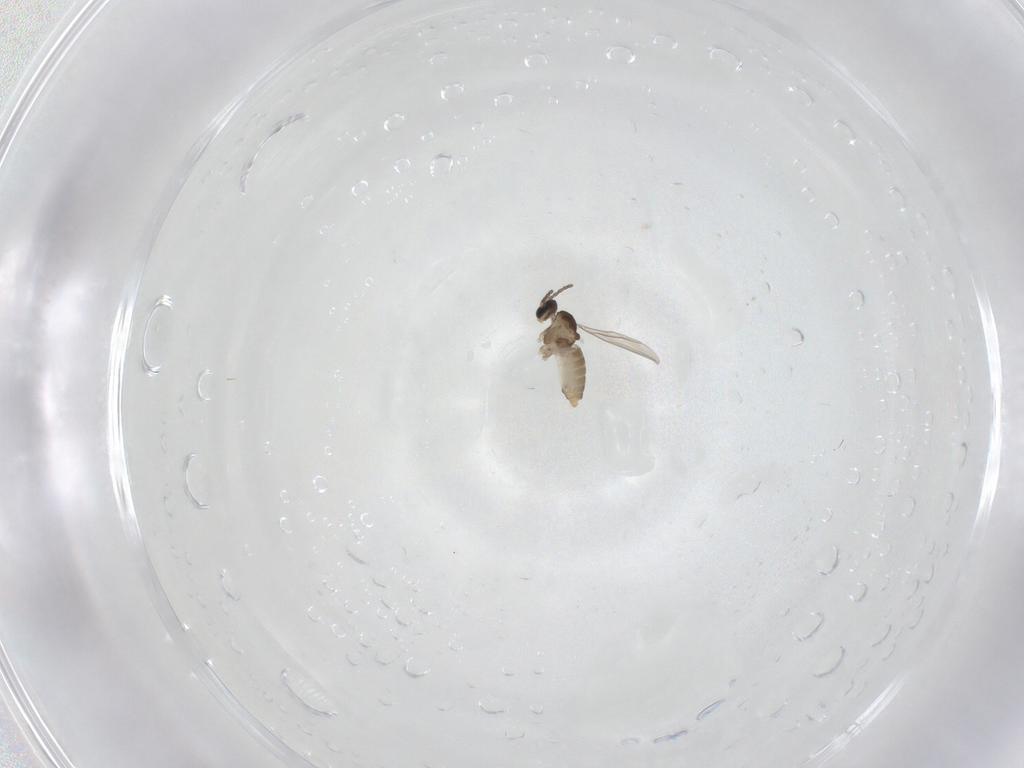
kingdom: Animalia
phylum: Arthropoda
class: Insecta
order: Diptera
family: Cecidomyiidae
